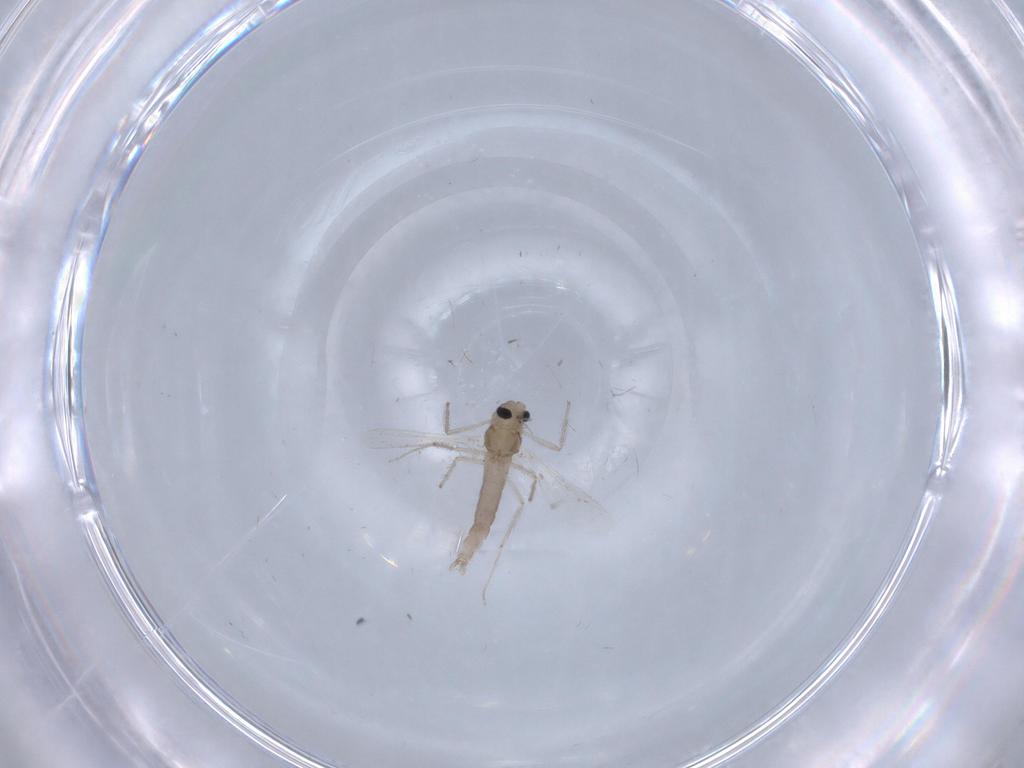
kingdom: Animalia
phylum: Arthropoda
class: Insecta
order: Diptera
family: Chironomidae
